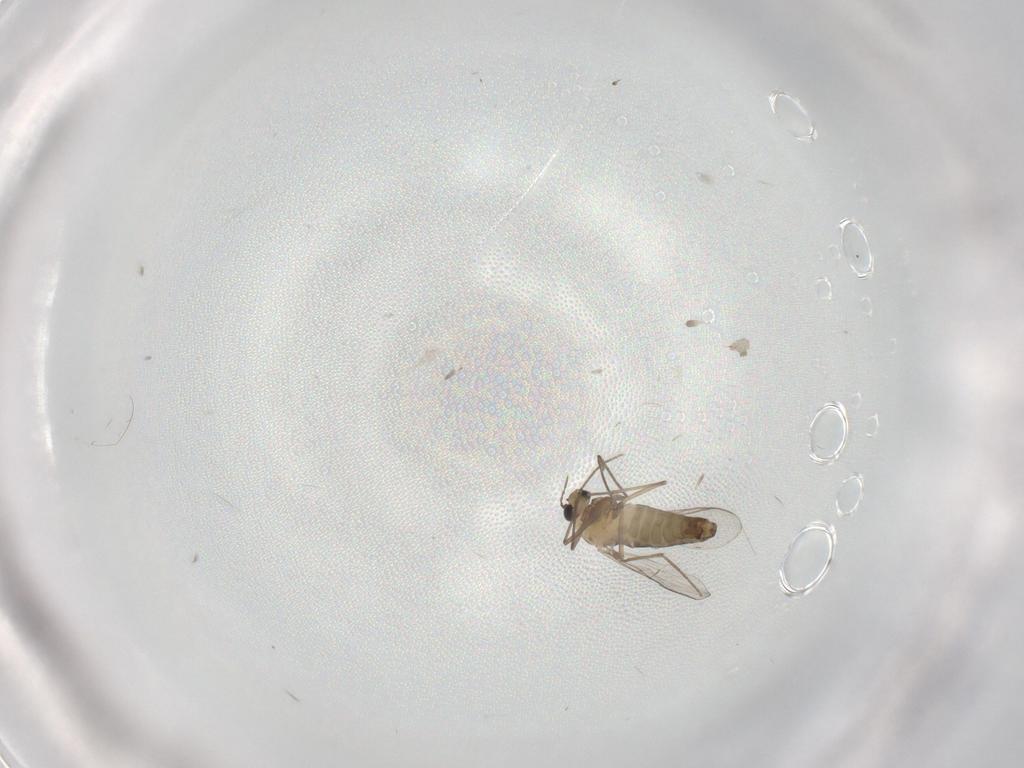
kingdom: Animalia
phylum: Arthropoda
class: Insecta
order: Diptera
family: Chironomidae
